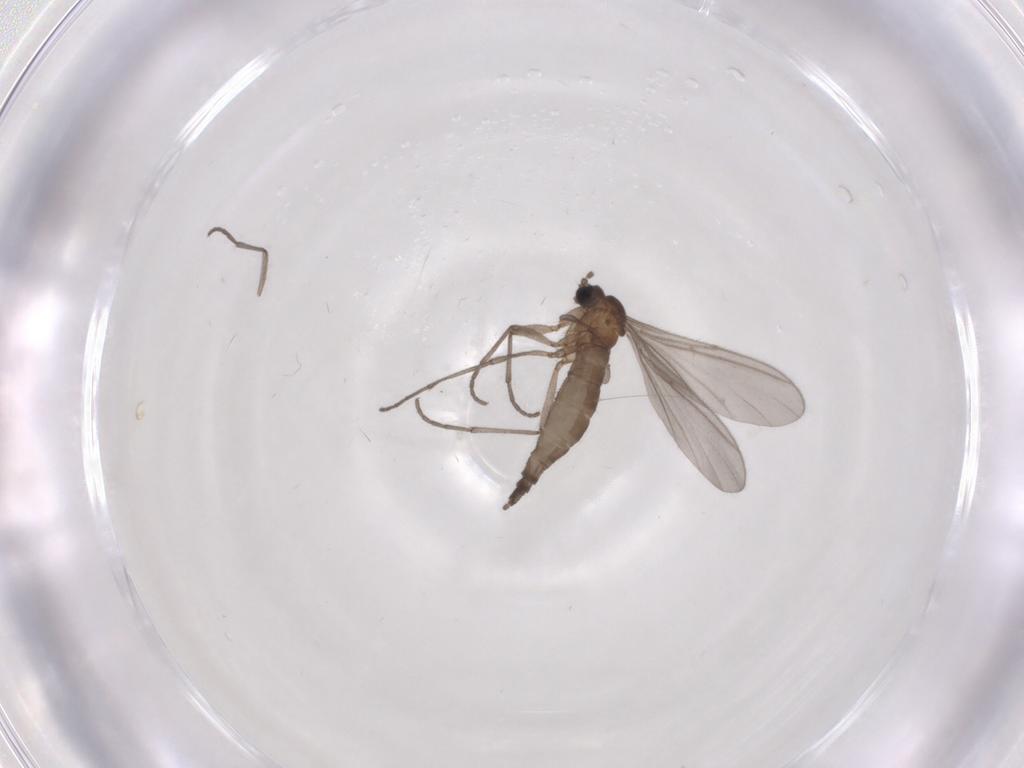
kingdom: Animalia
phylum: Arthropoda
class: Insecta
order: Diptera
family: Sciaridae
